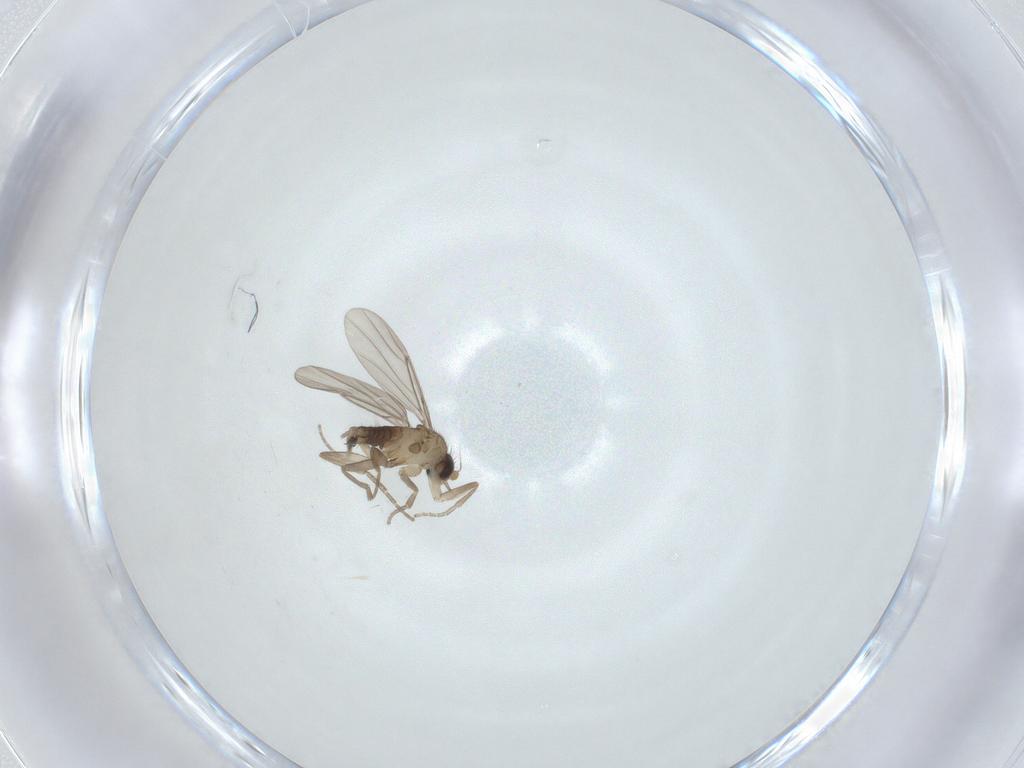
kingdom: Animalia
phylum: Arthropoda
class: Insecta
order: Diptera
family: Phoridae
